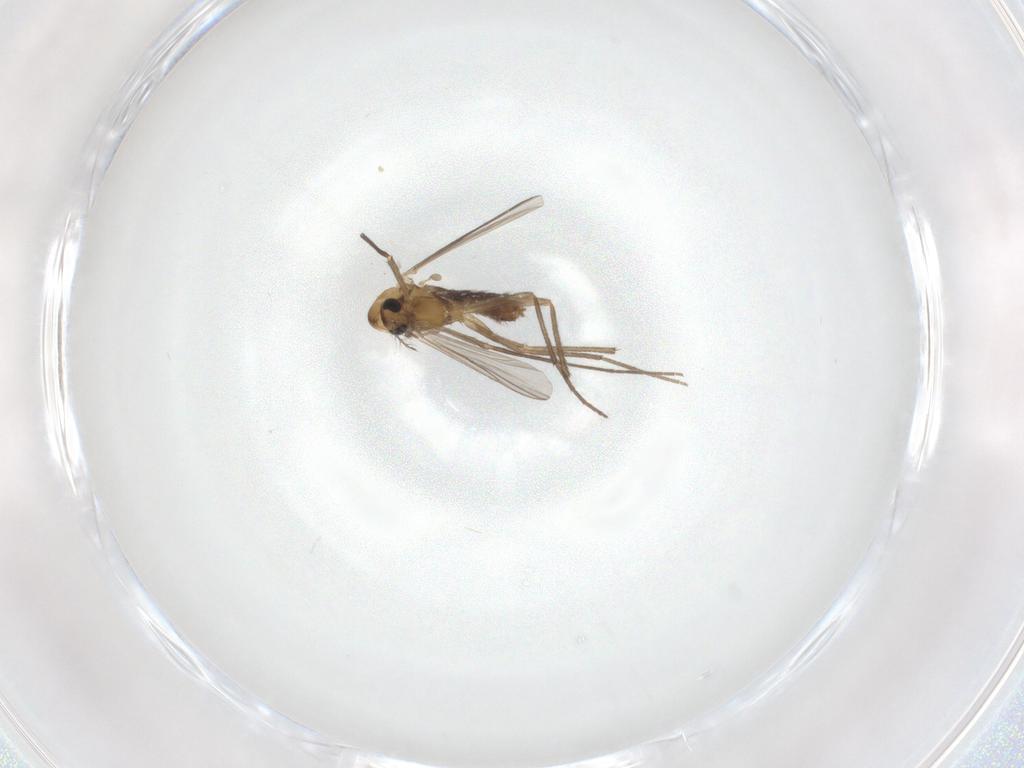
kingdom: Animalia
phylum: Arthropoda
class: Insecta
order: Diptera
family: Chironomidae
